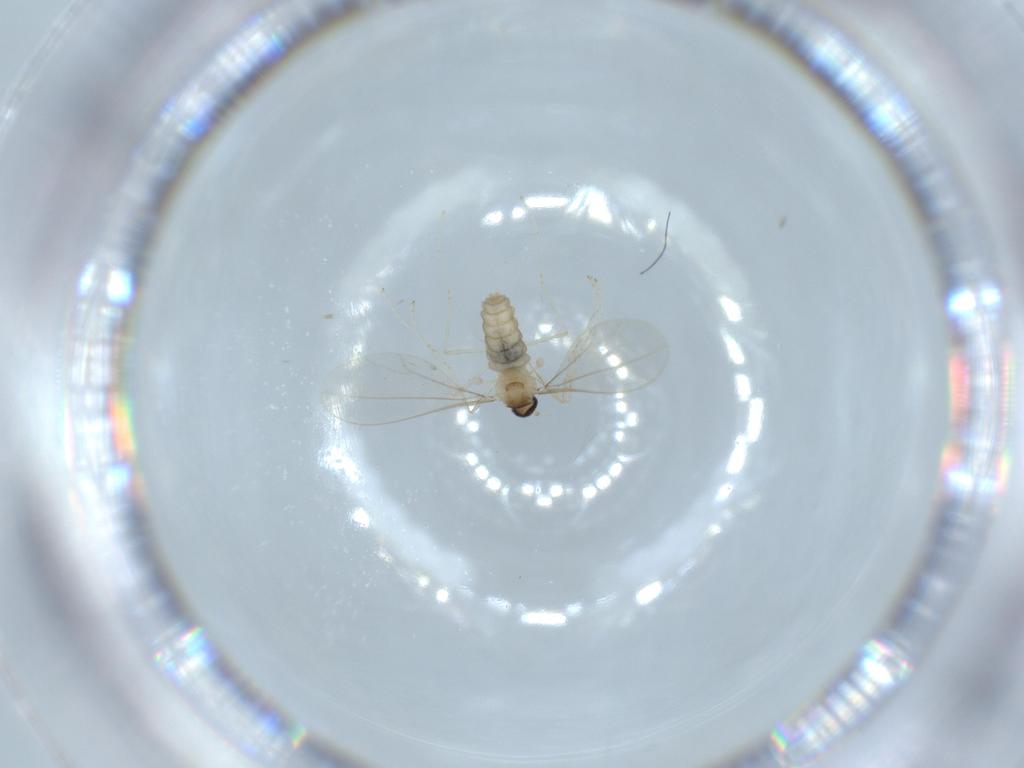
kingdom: Animalia
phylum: Arthropoda
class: Insecta
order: Diptera
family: Cecidomyiidae
